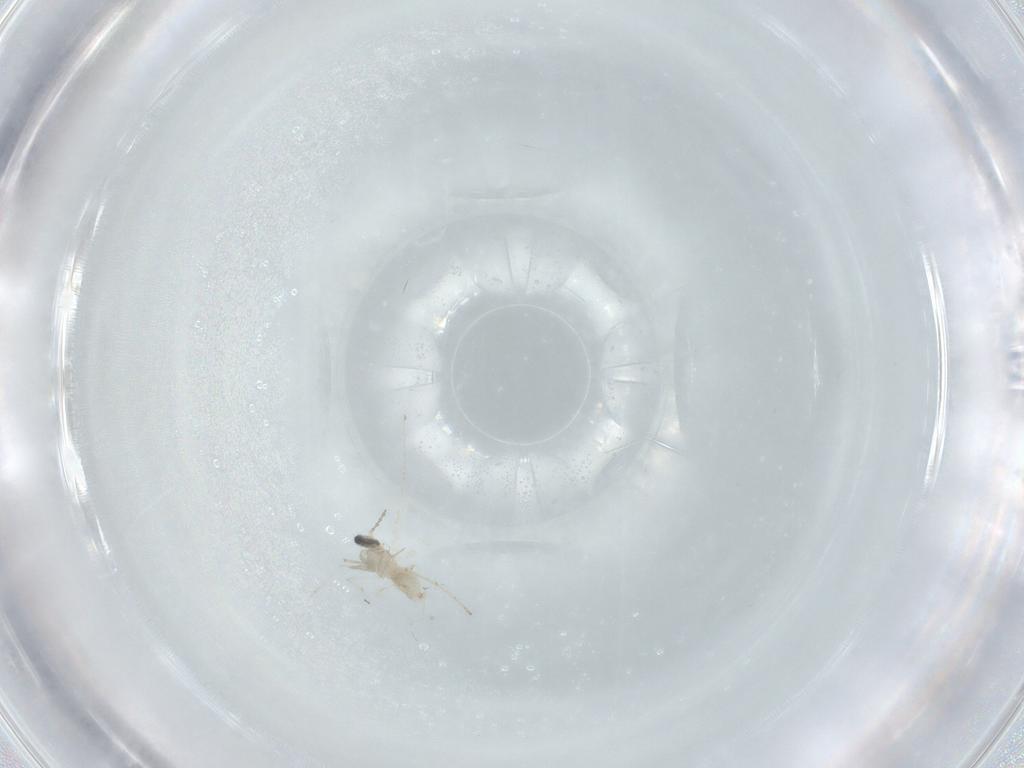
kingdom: Animalia
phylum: Arthropoda
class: Insecta
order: Diptera
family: Cecidomyiidae
